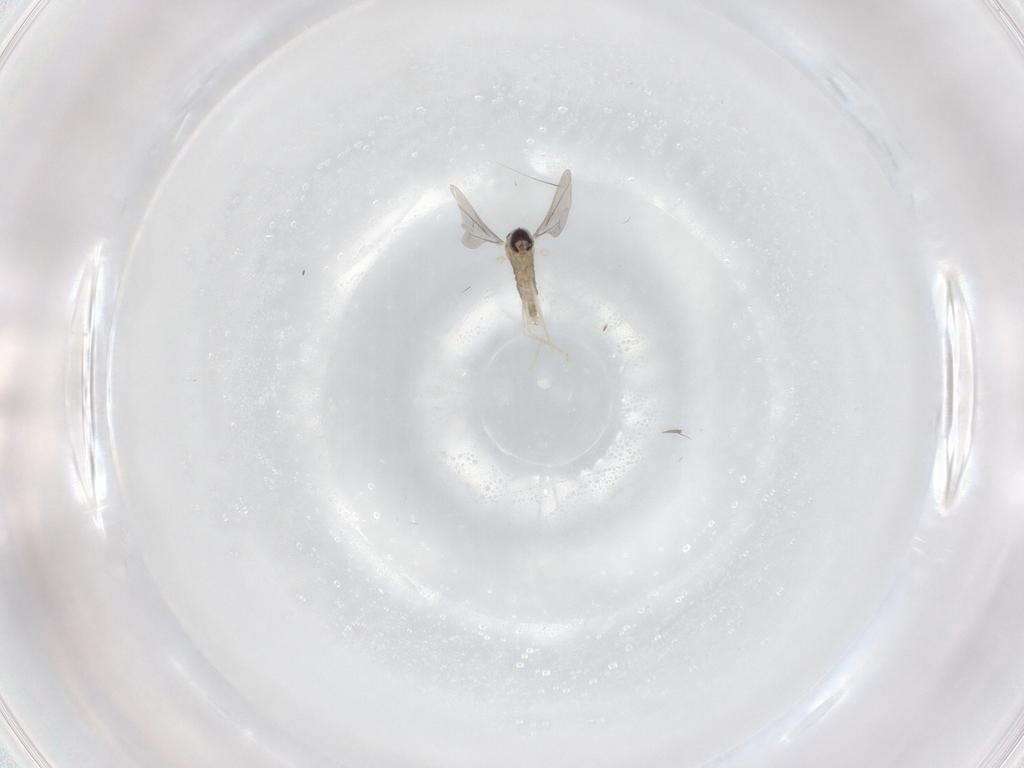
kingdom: Animalia
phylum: Arthropoda
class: Insecta
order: Diptera
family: Cecidomyiidae
